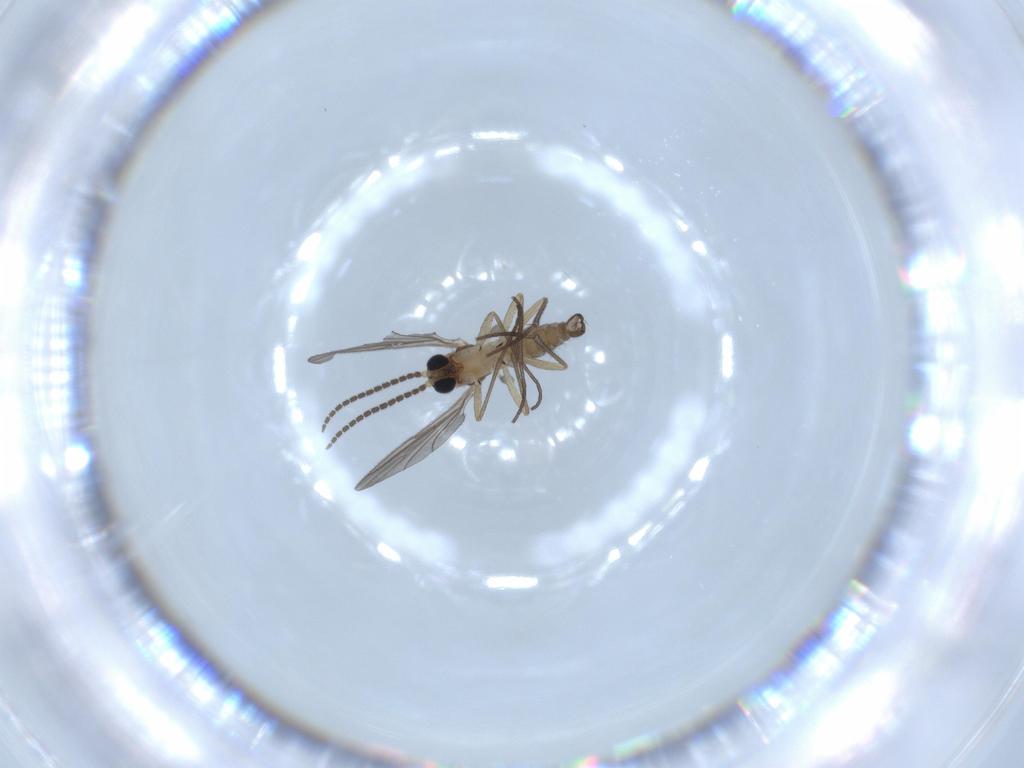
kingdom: Animalia
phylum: Arthropoda
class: Insecta
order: Diptera
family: Sciaridae
